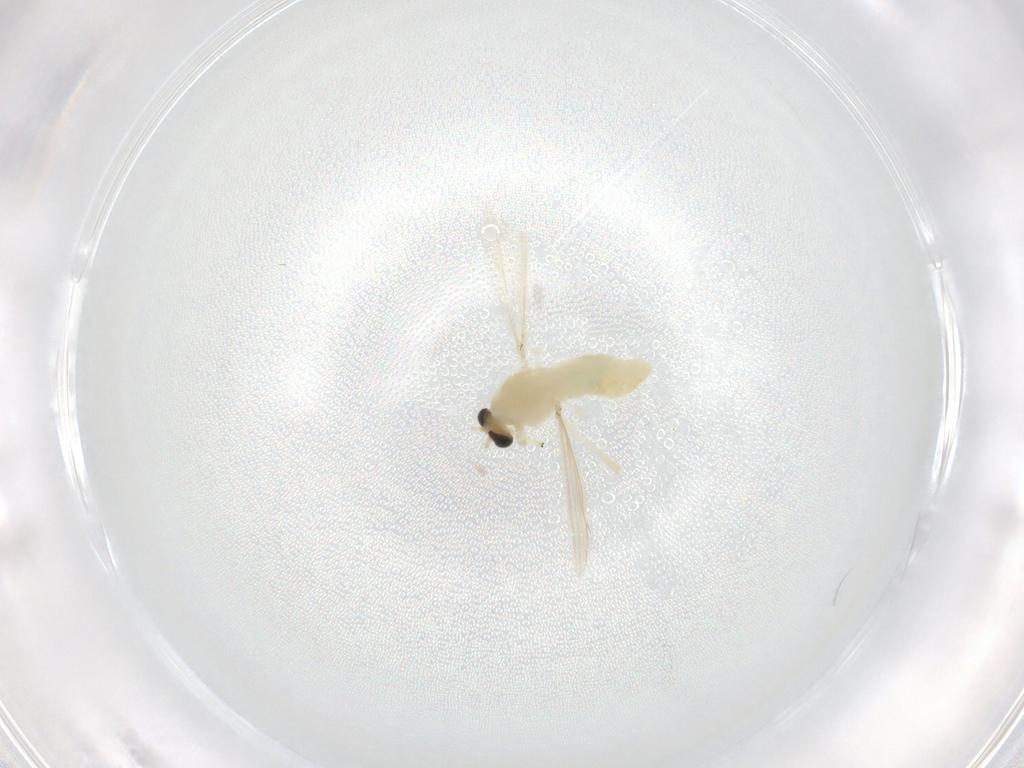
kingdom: Animalia
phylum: Arthropoda
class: Insecta
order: Diptera
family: Chironomidae
